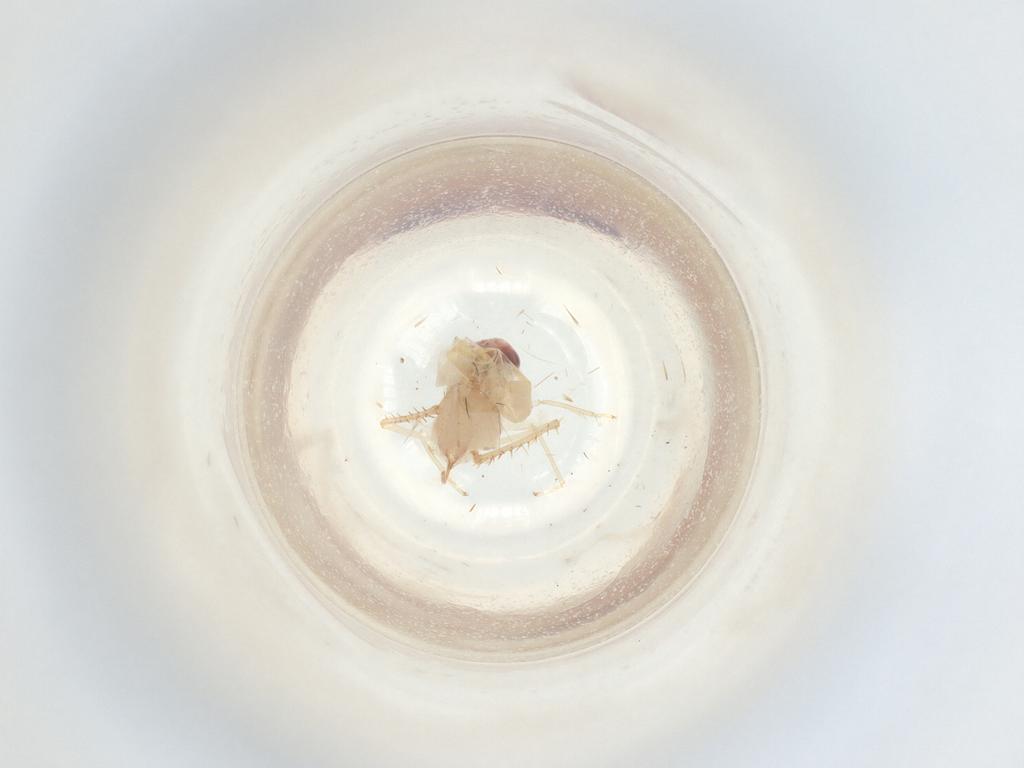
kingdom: Animalia
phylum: Arthropoda
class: Insecta
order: Hemiptera
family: Cicadellidae
